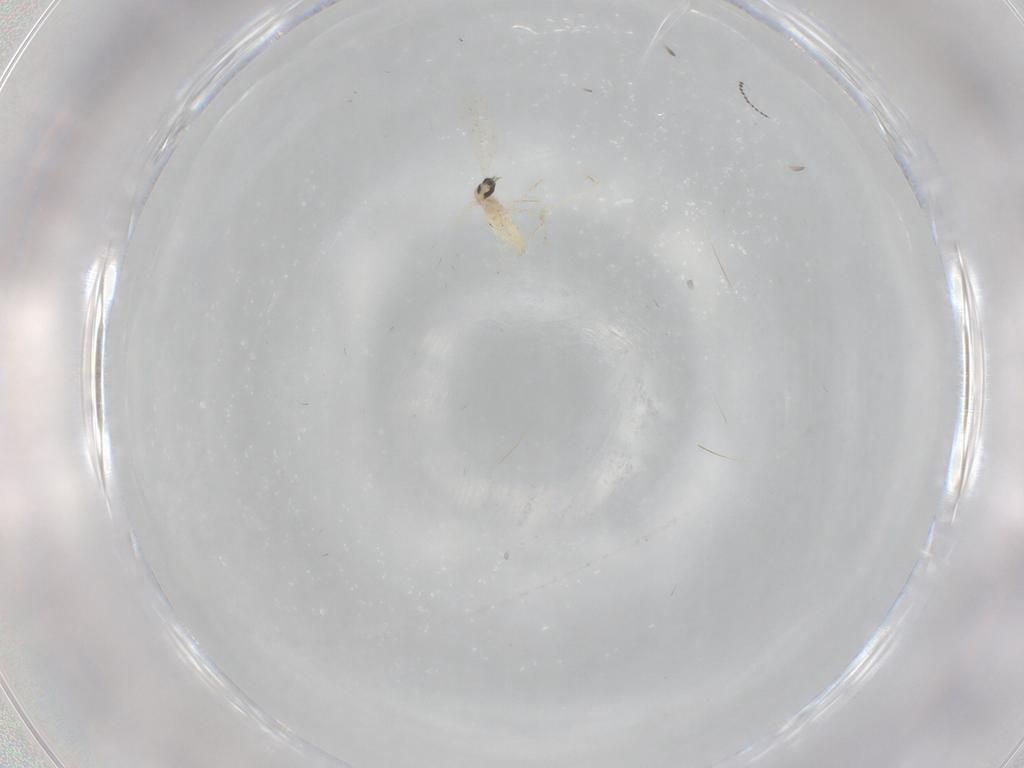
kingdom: Animalia
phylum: Arthropoda
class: Insecta
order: Diptera
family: Cecidomyiidae
